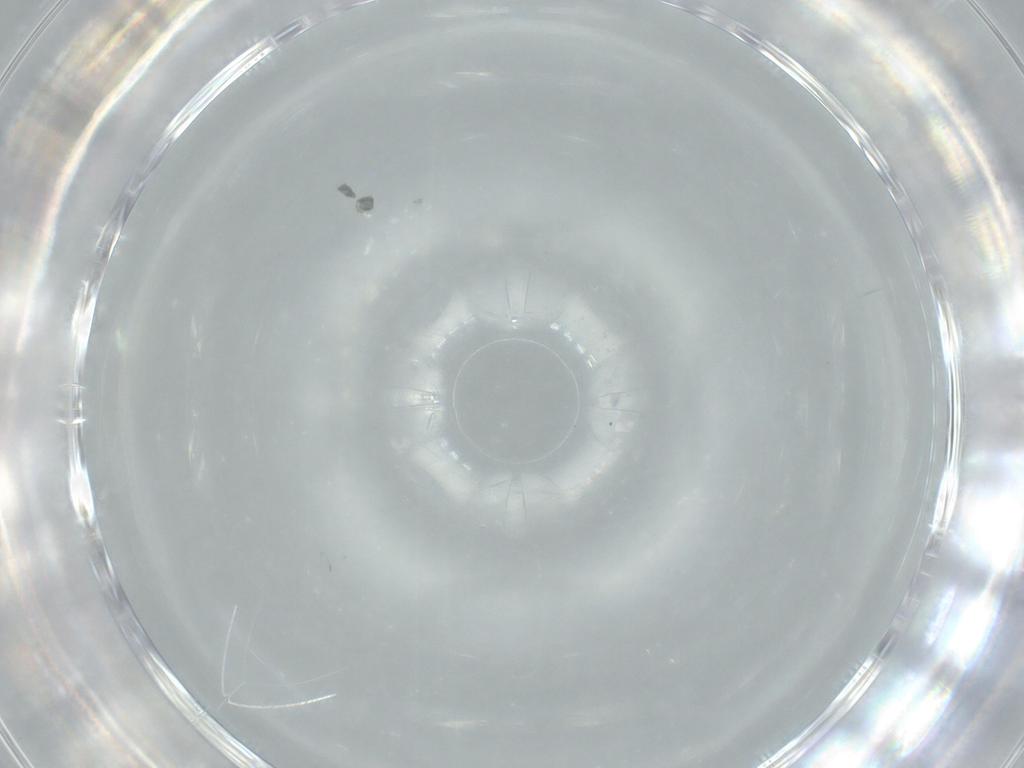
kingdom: Animalia
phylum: Arthropoda
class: Insecta
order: Diptera
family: Milichiidae
